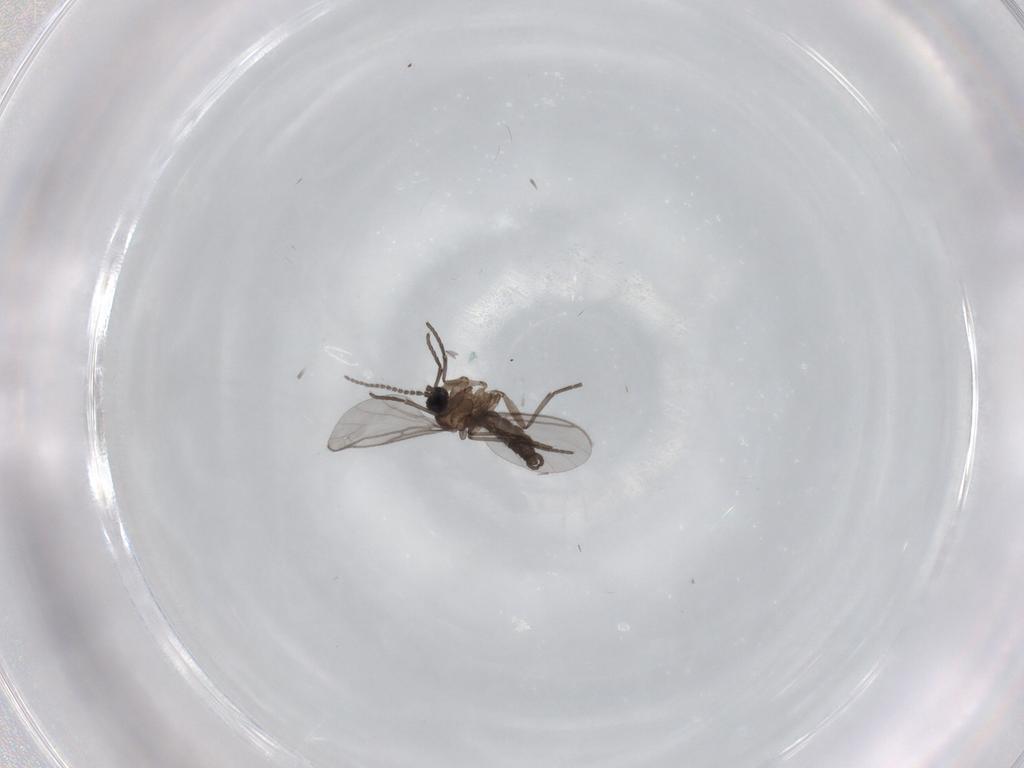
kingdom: Animalia
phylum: Arthropoda
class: Insecta
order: Diptera
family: Sciaridae
